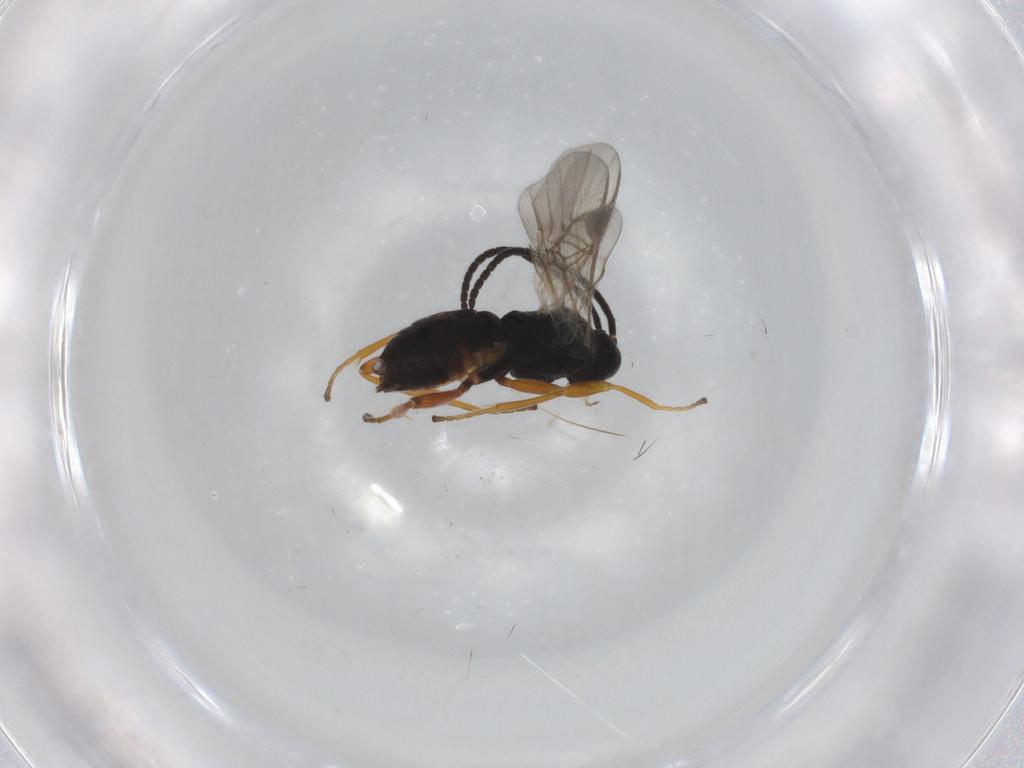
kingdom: Animalia
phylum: Arthropoda
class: Insecta
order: Hymenoptera
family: Braconidae
